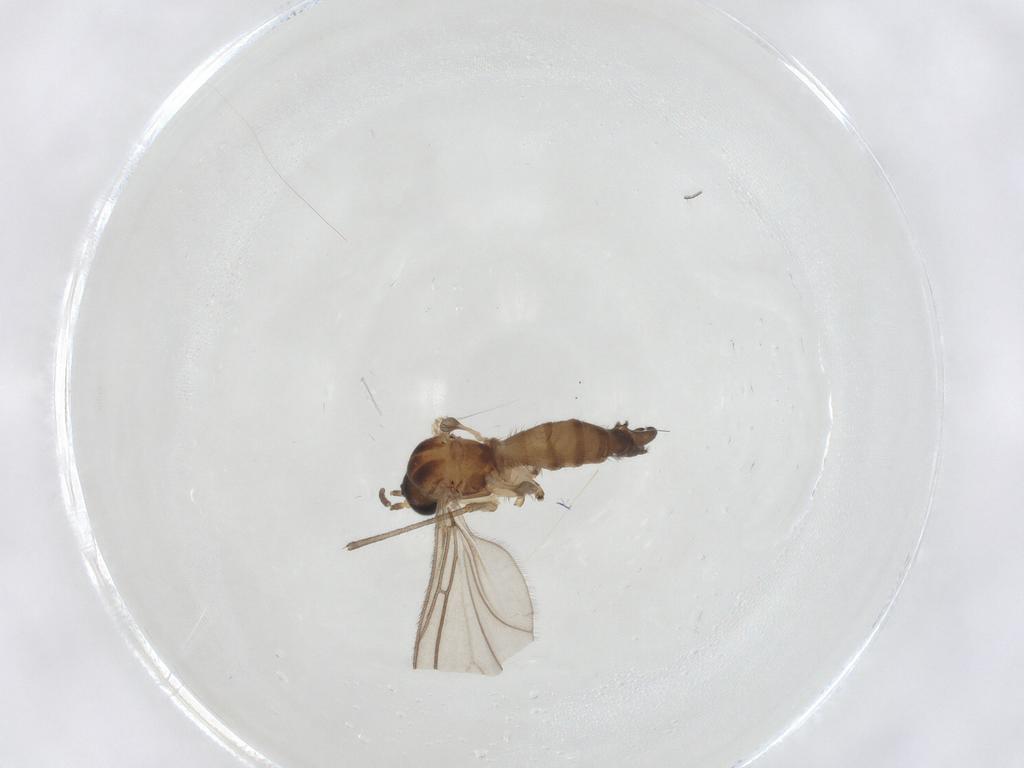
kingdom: Animalia
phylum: Arthropoda
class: Insecta
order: Diptera
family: Sciaridae
